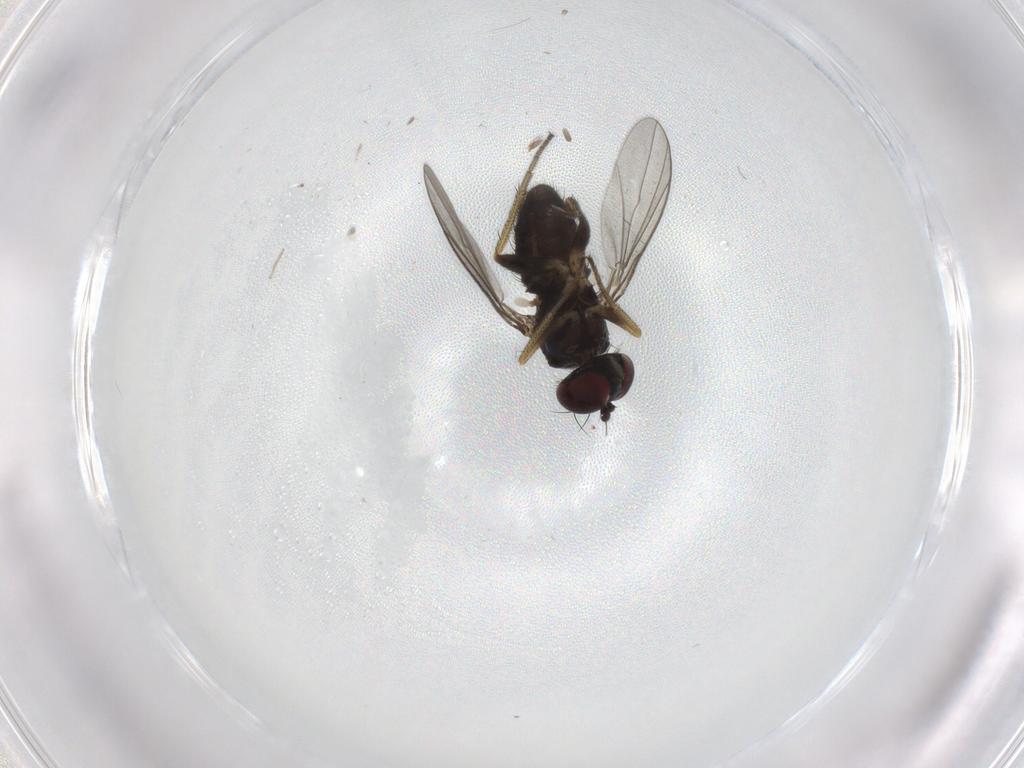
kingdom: Animalia
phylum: Arthropoda
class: Insecta
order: Diptera
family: Dolichopodidae
